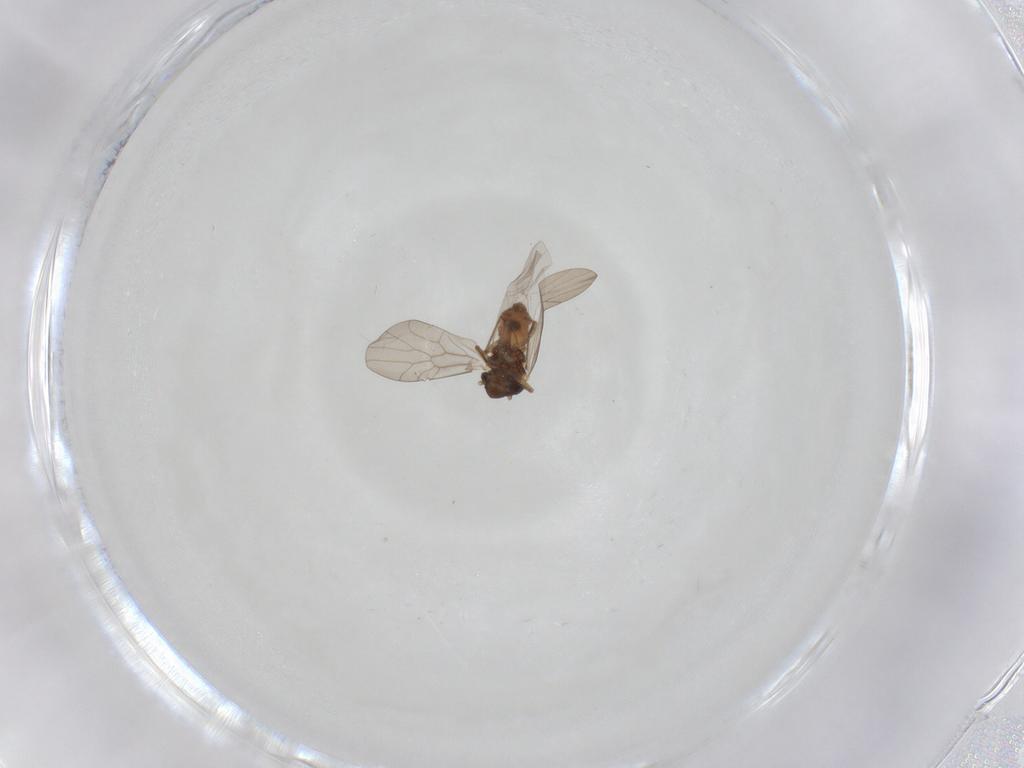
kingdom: Animalia
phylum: Arthropoda
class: Insecta
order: Psocodea
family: Lepidopsocidae
